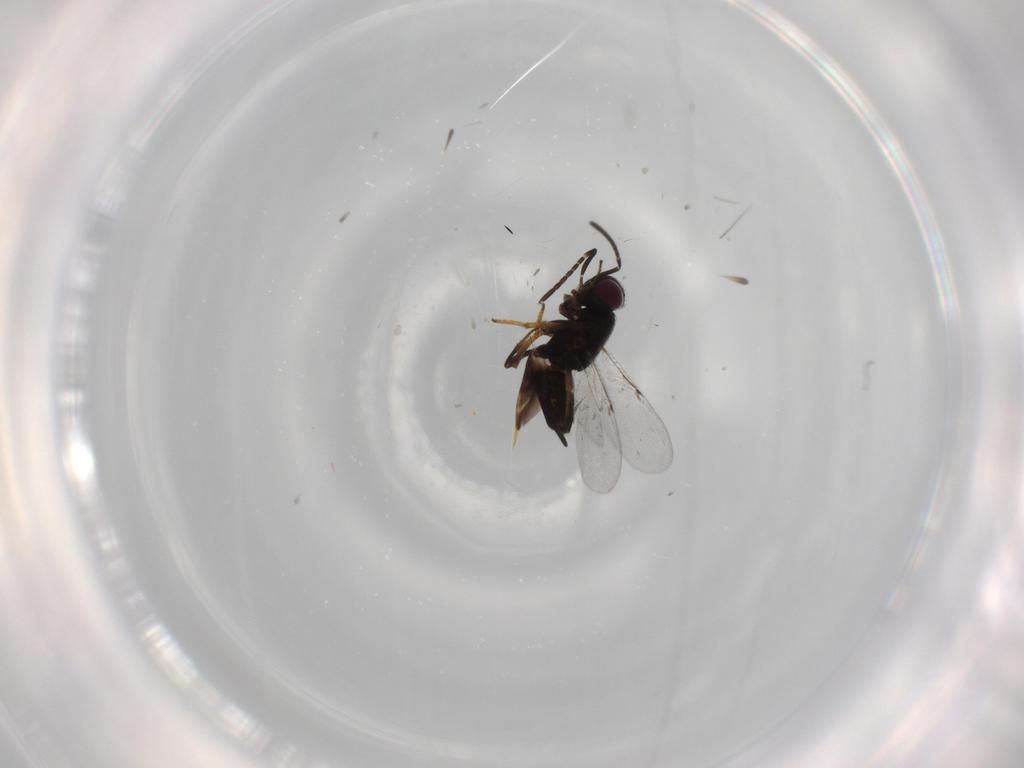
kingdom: Animalia
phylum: Arthropoda
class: Insecta
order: Hymenoptera
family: Encyrtidae
